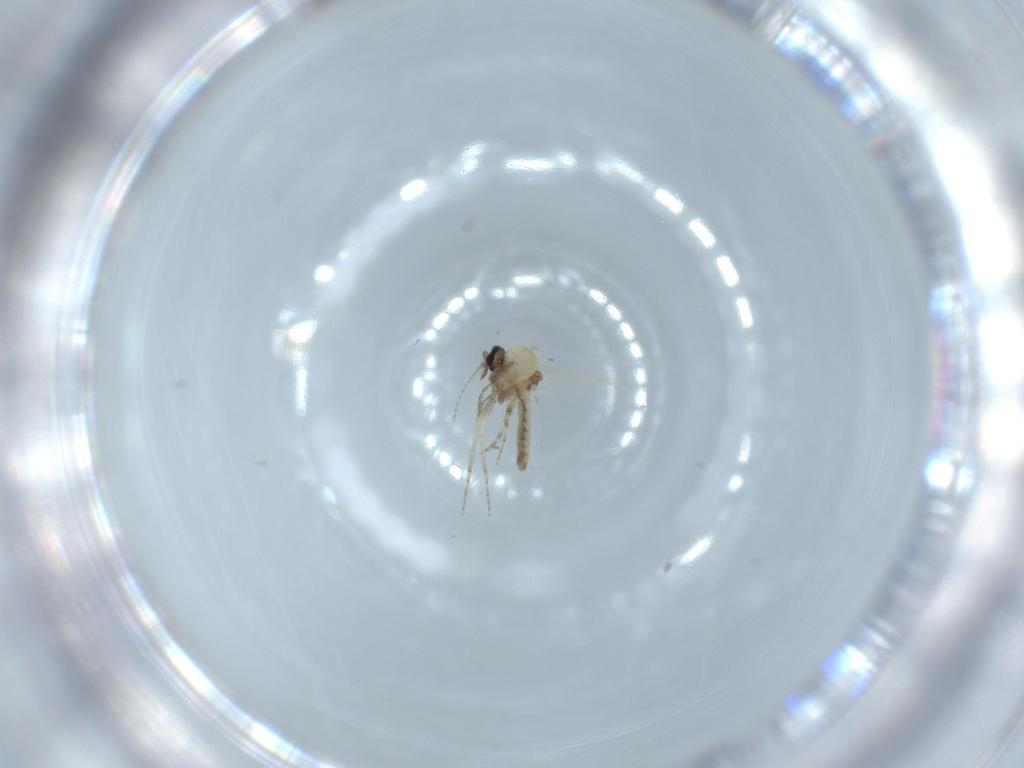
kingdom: Animalia
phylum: Arthropoda
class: Insecta
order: Diptera
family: Ceratopogonidae
